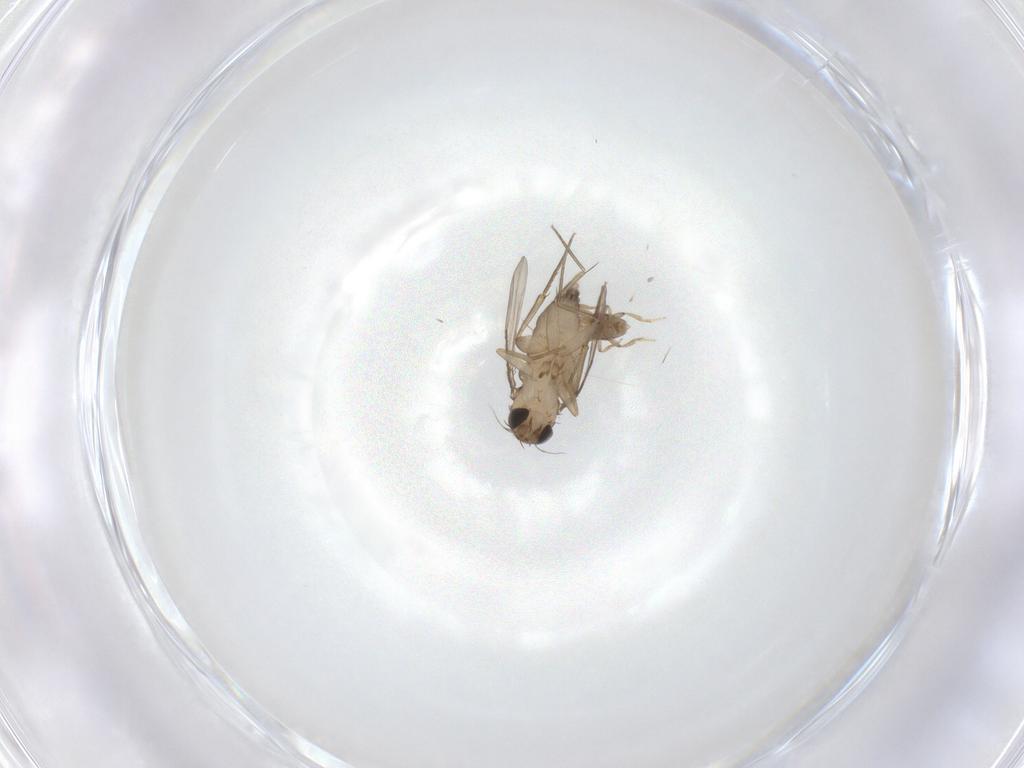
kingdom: Animalia
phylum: Arthropoda
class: Insecta
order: Diptera
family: Phoridae
